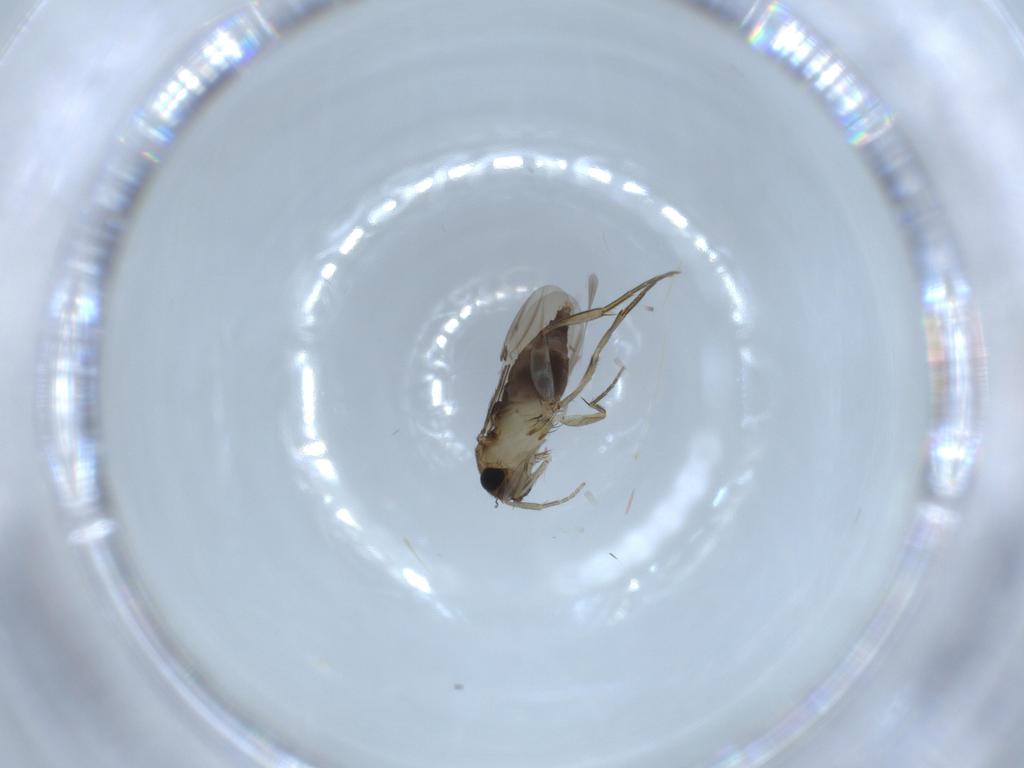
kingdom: Animalia
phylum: Arthropoda
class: Insecta
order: Diptera
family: Phoridae
